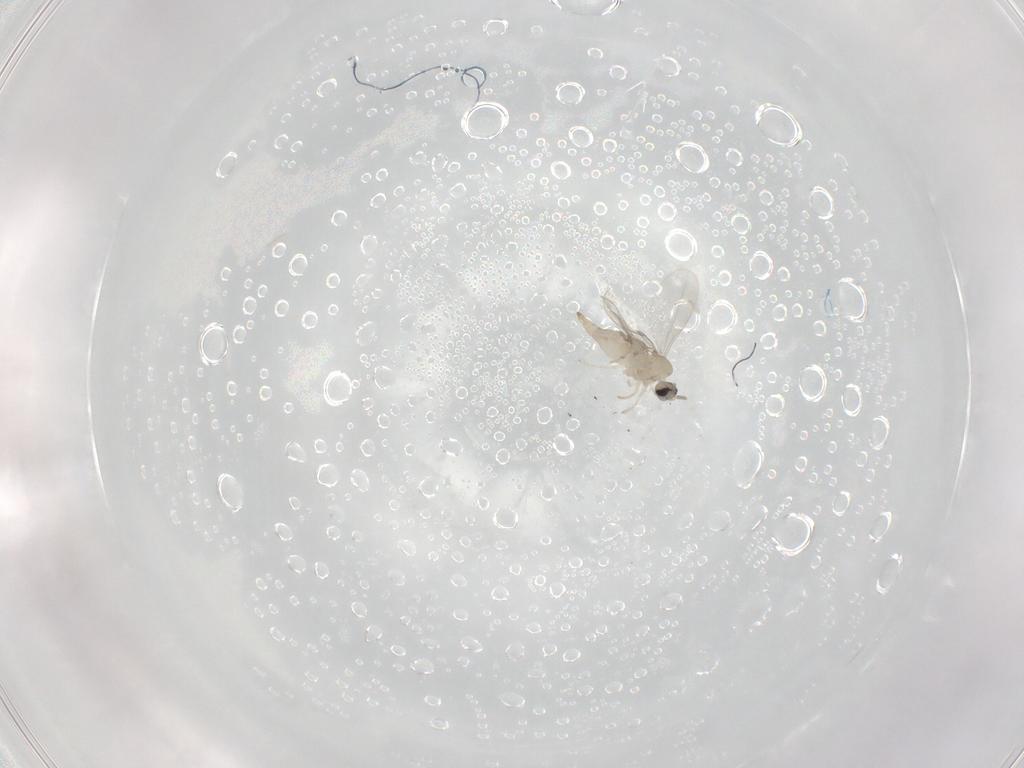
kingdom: Animalia
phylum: Arthropoda
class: Insecta
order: Diptera
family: Cecidomyiidae
